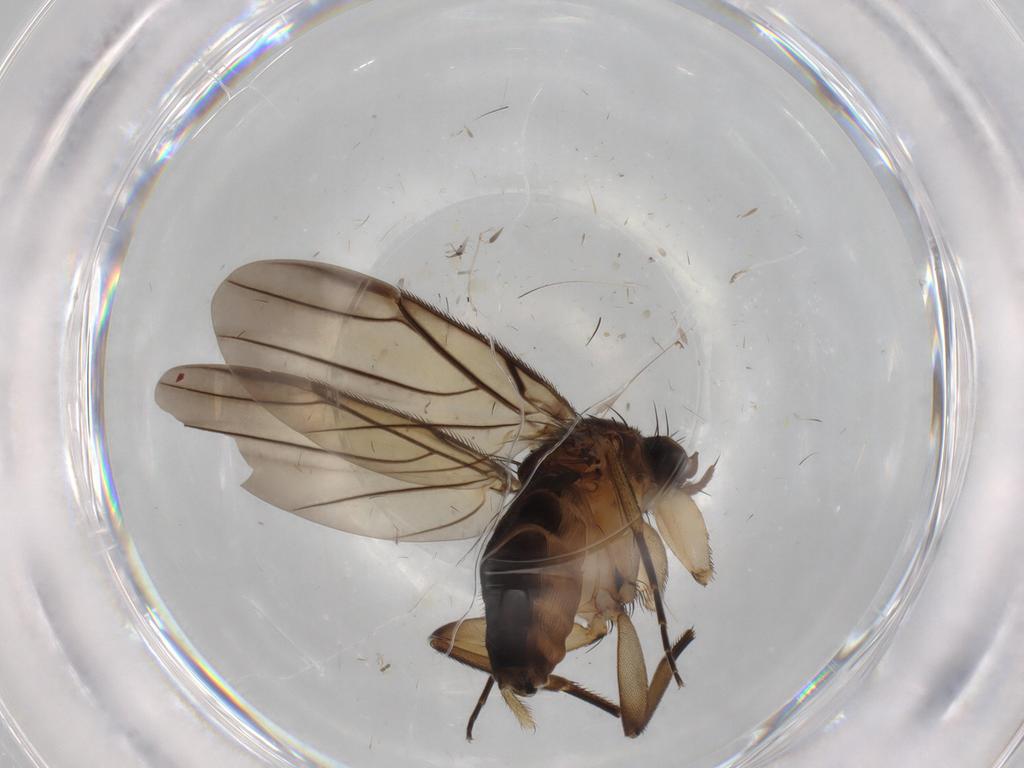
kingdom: Animalia
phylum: Arthropoda
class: Insecta
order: Diptera
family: Phoridae
